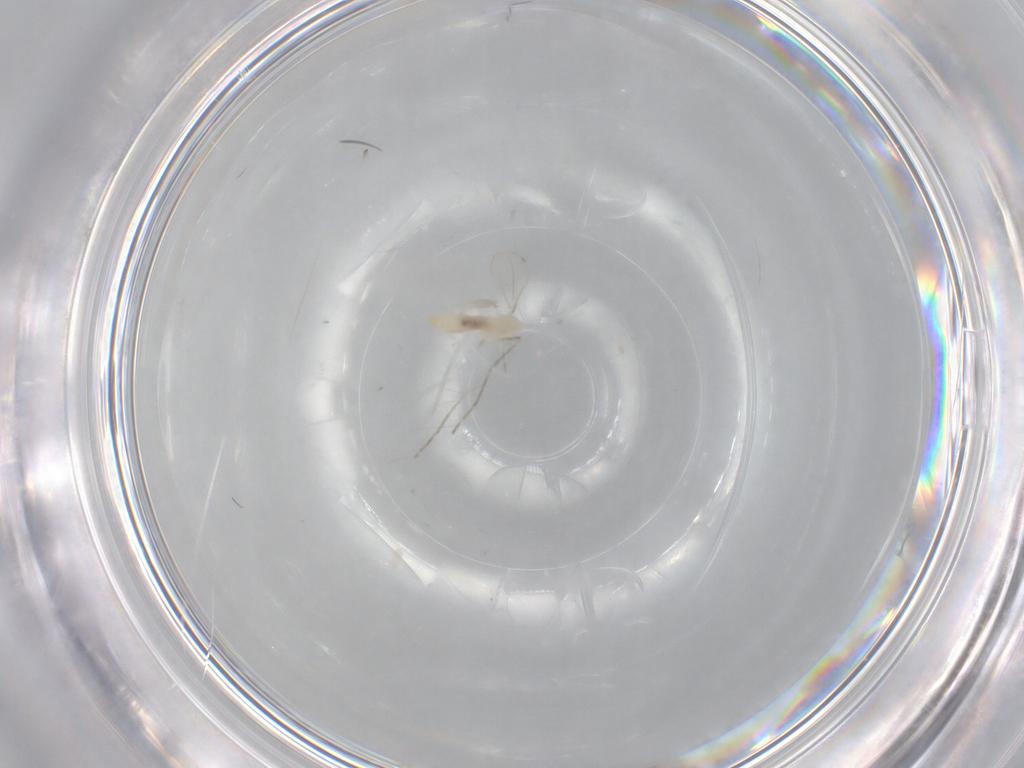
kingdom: Animalia
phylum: Arthropoda
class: Insecta
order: Diptera
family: Cecidomyiidae
